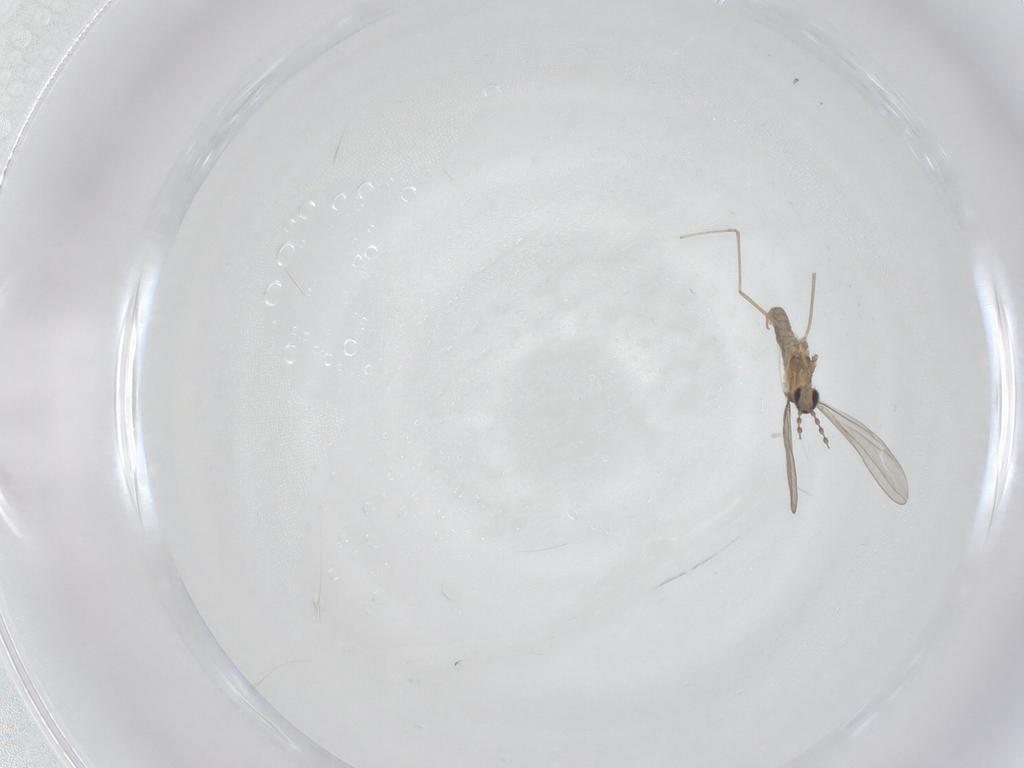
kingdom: Animalia
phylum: Arthropoda
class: Insecta
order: Diptera
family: Cecidomyiidae
